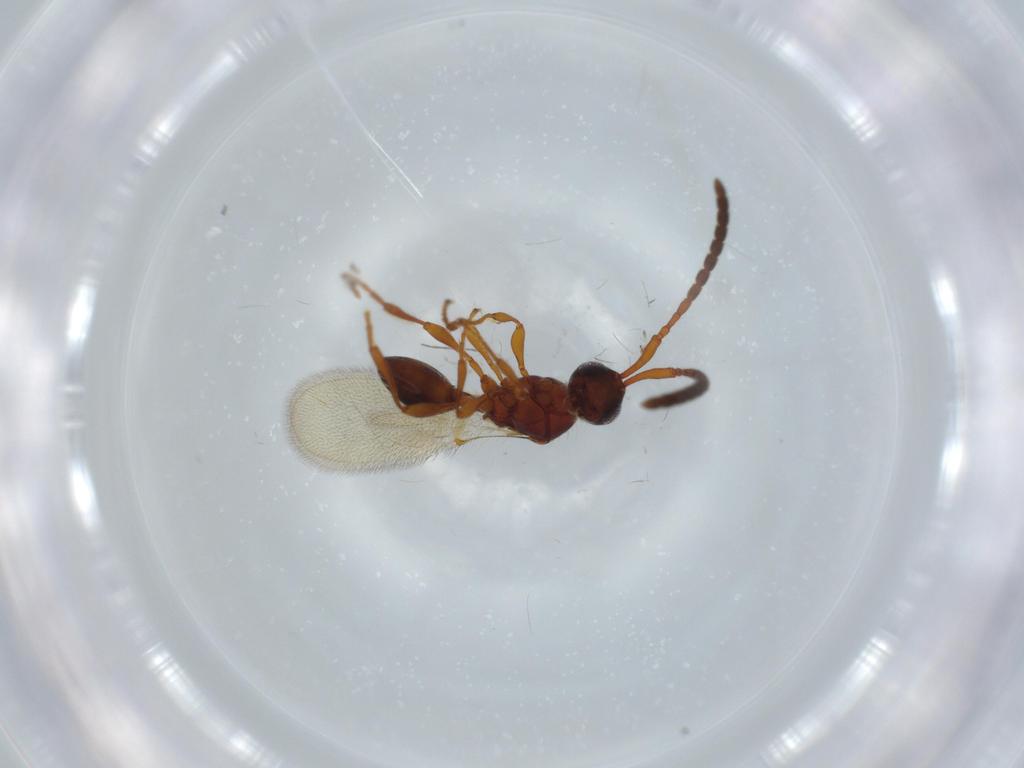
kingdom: Animalia
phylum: Arthropoda
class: Insecta
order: Hymenoptera
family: Diapriidae
